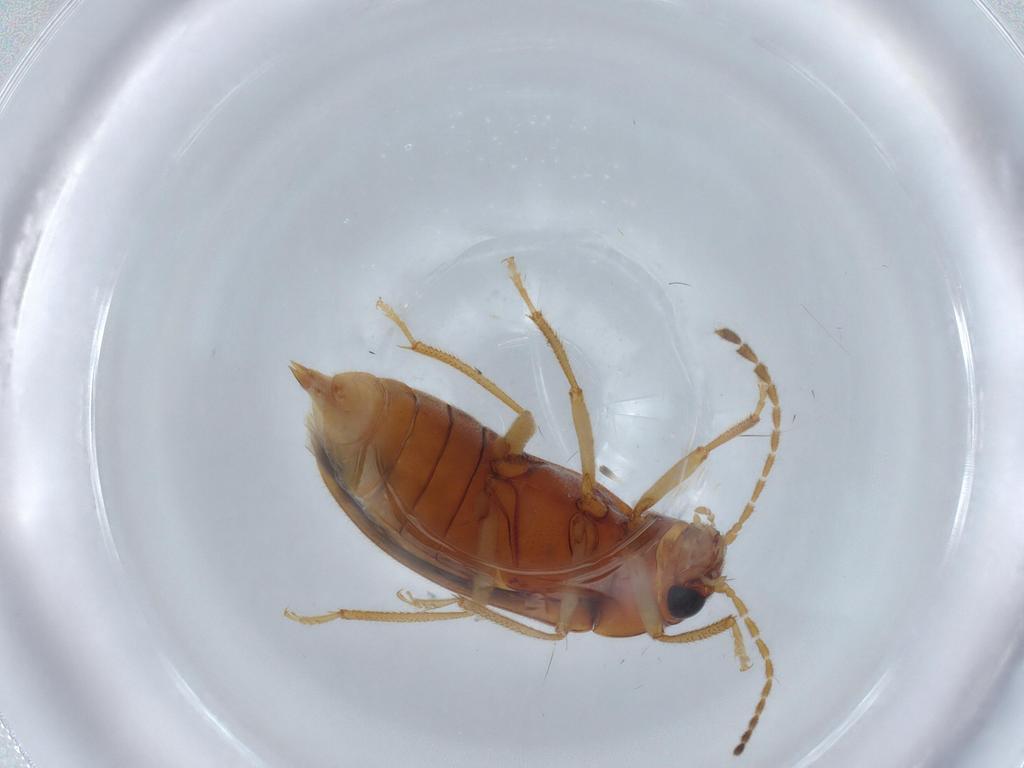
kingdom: Animalia
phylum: Arthropoda
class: Insecta
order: Coleoptera
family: Ptilodactylidae
